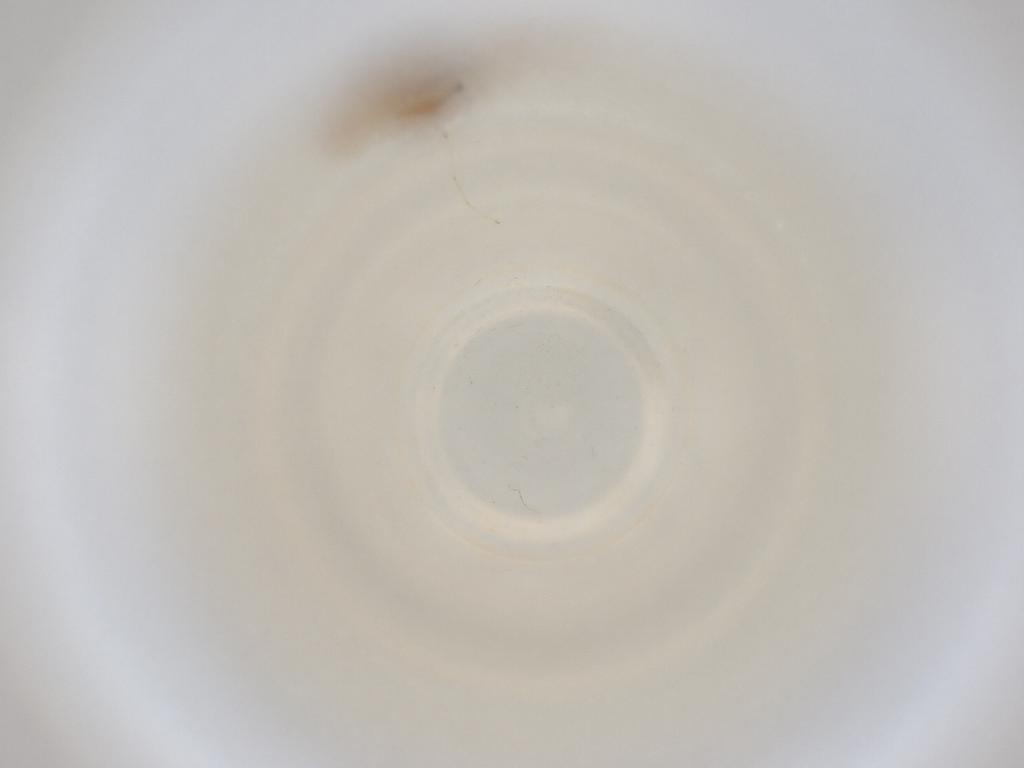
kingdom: Animalia
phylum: Arthropoda
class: Insecta
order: Diptera
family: Cecidomyiidae
